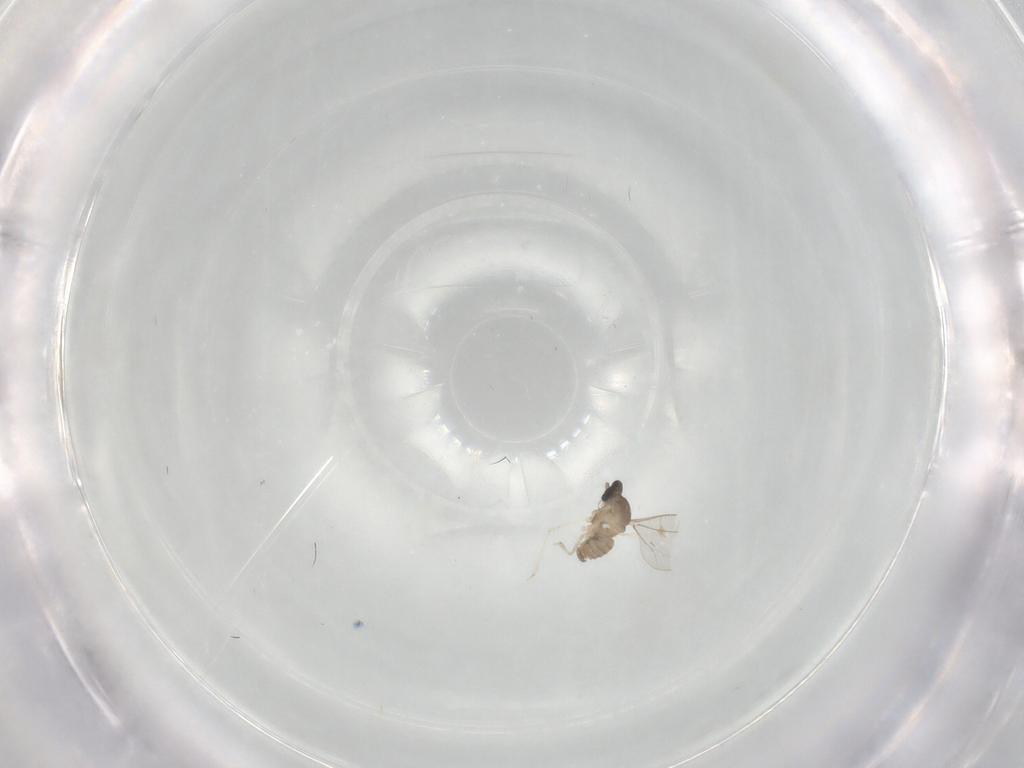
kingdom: Animalia
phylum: Arthropoda
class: Insecta
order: Diptera
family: Cecidomyiidae
